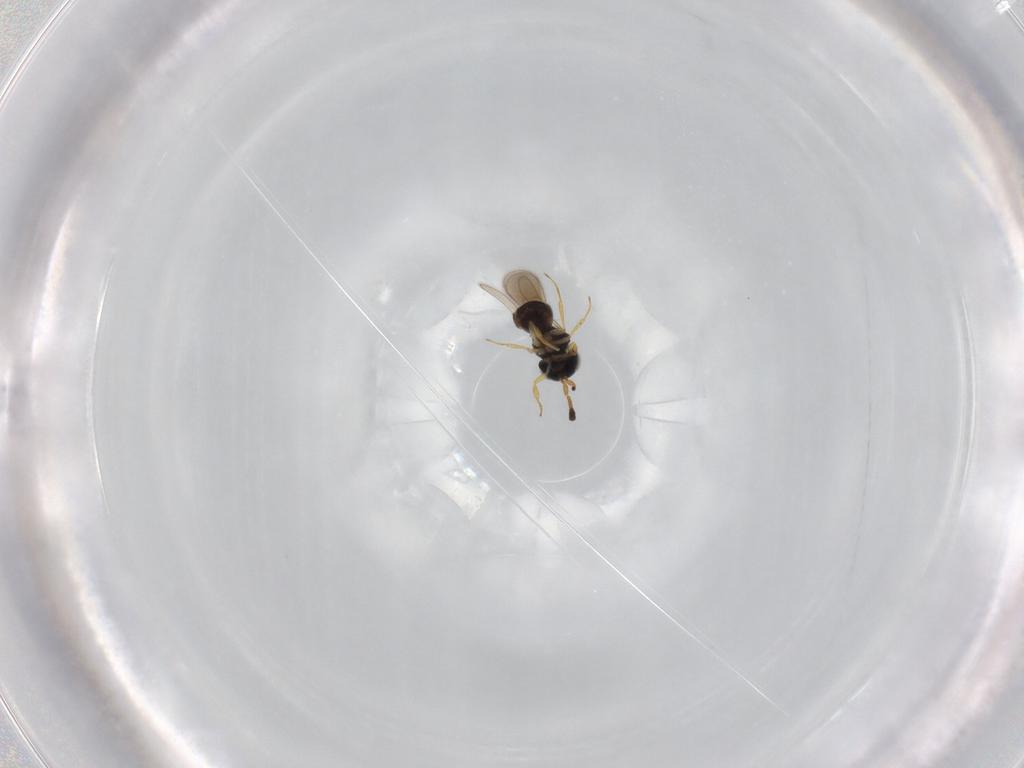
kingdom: Animalia
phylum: Arthropoda
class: Insecta
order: Hymenoptera
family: Scelionidae
